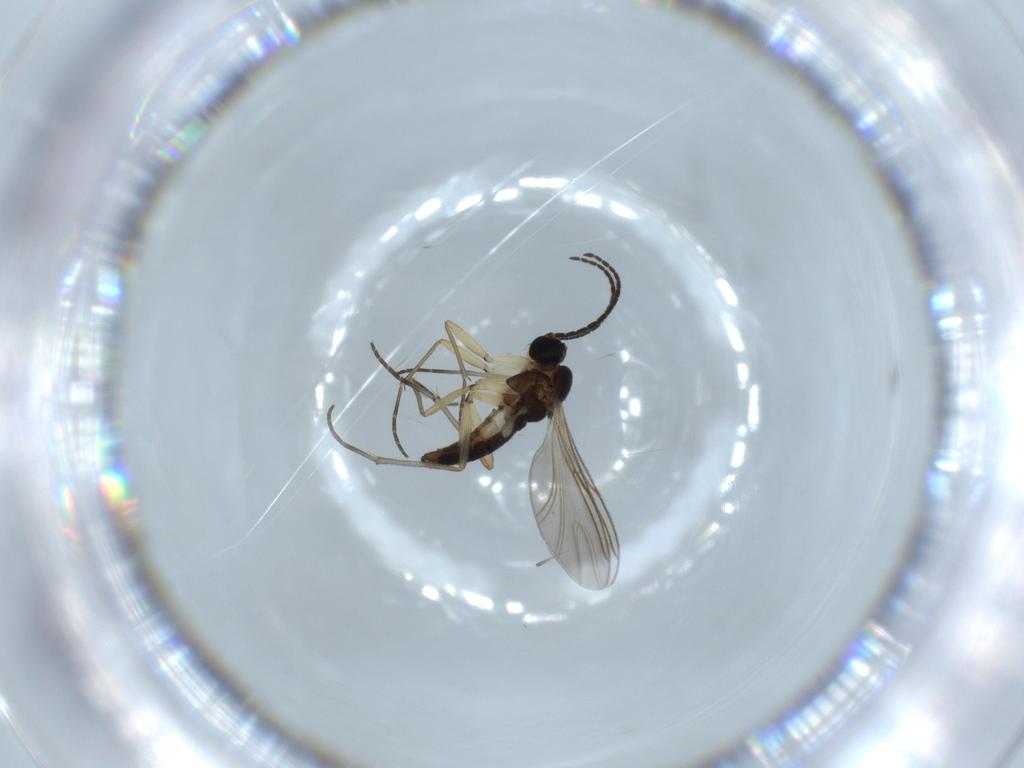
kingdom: Animalia
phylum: Arthropoda
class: Insecta
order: Diptera
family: Sciaridae
